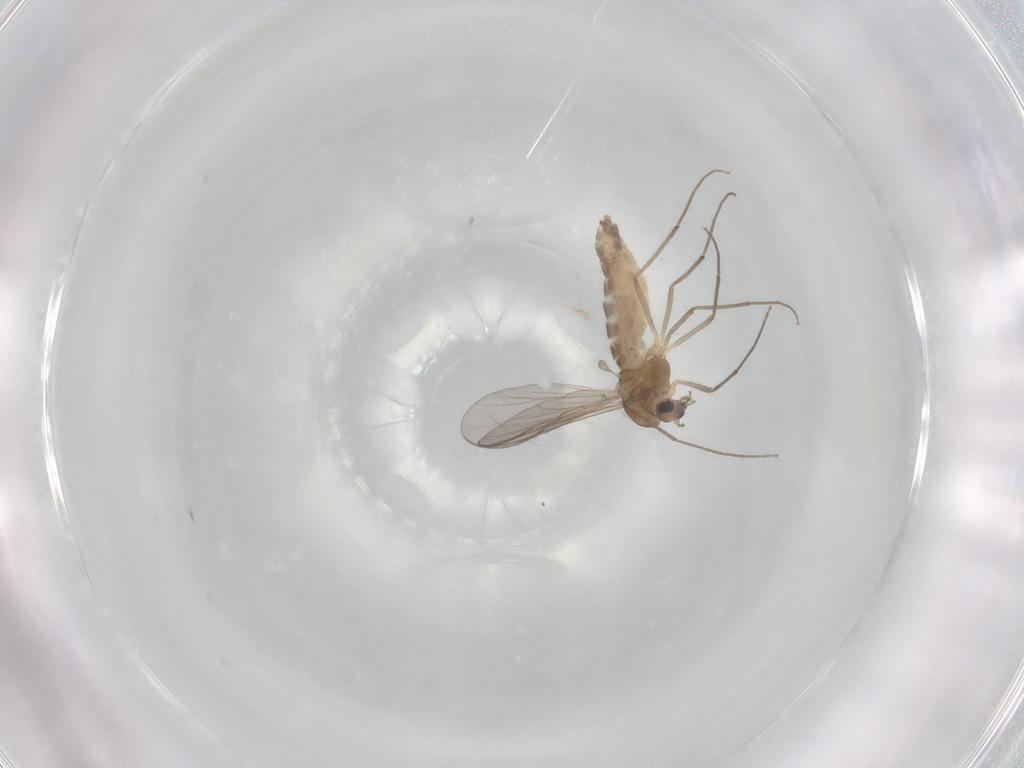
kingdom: Animalia
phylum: Arthropoda
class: Insecta
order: Diptera
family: Chironomidae
